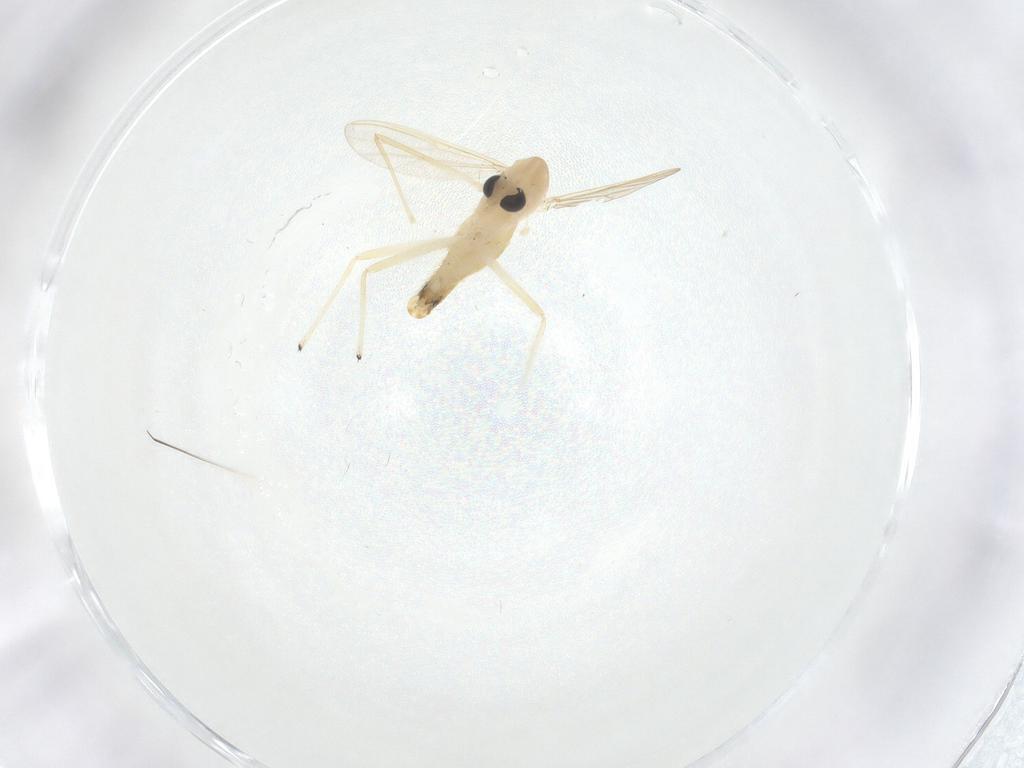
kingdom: Animalia
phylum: Arthropoda
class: Insecta
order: Diptera
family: Chironomidae
